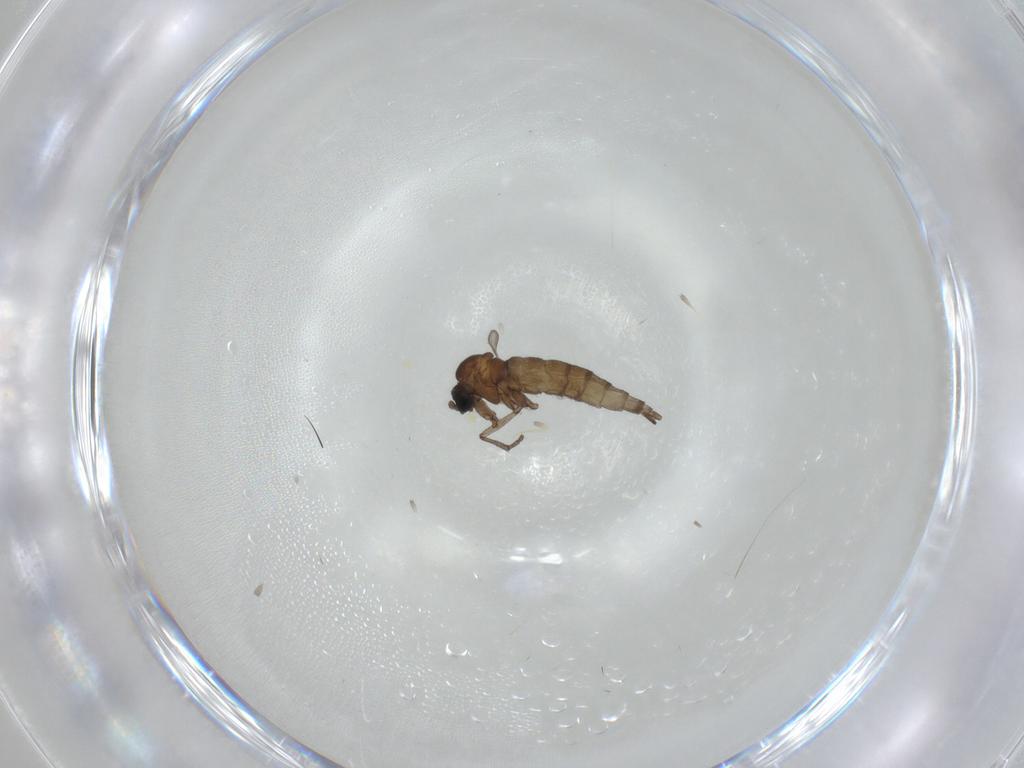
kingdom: Animalia
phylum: Arthropoda
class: Insecta
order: Diptera
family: Sciaridae
